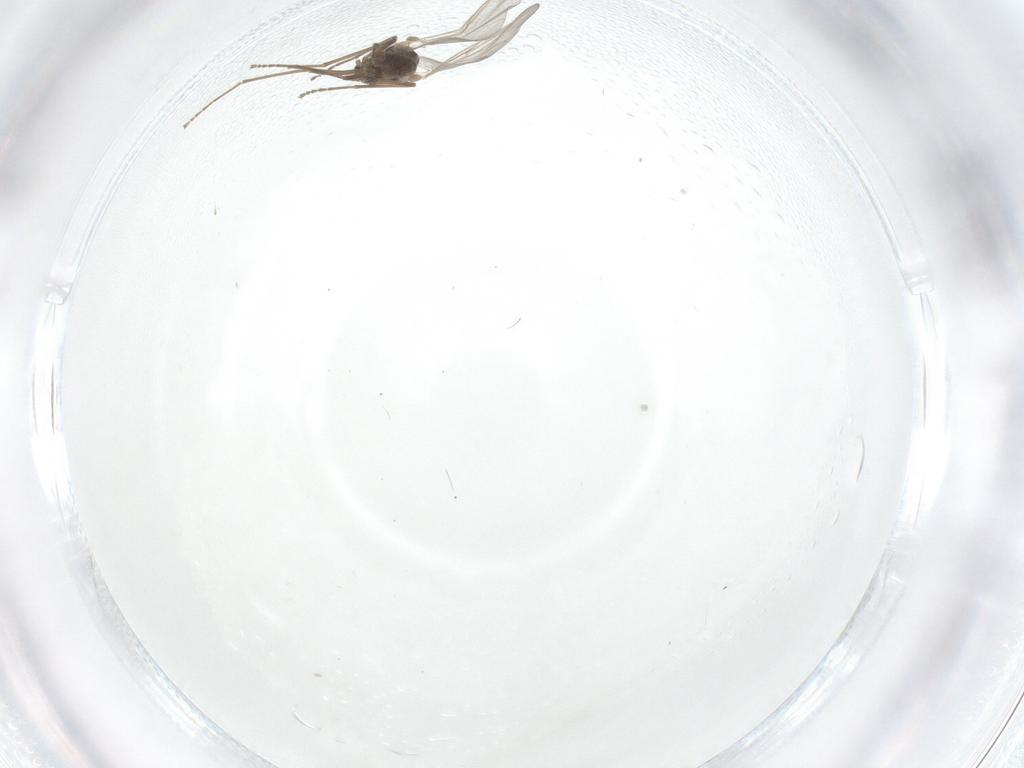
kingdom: Animalia
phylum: Arthropoda
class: Insecta
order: Diptera
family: Cecidomyiidae
